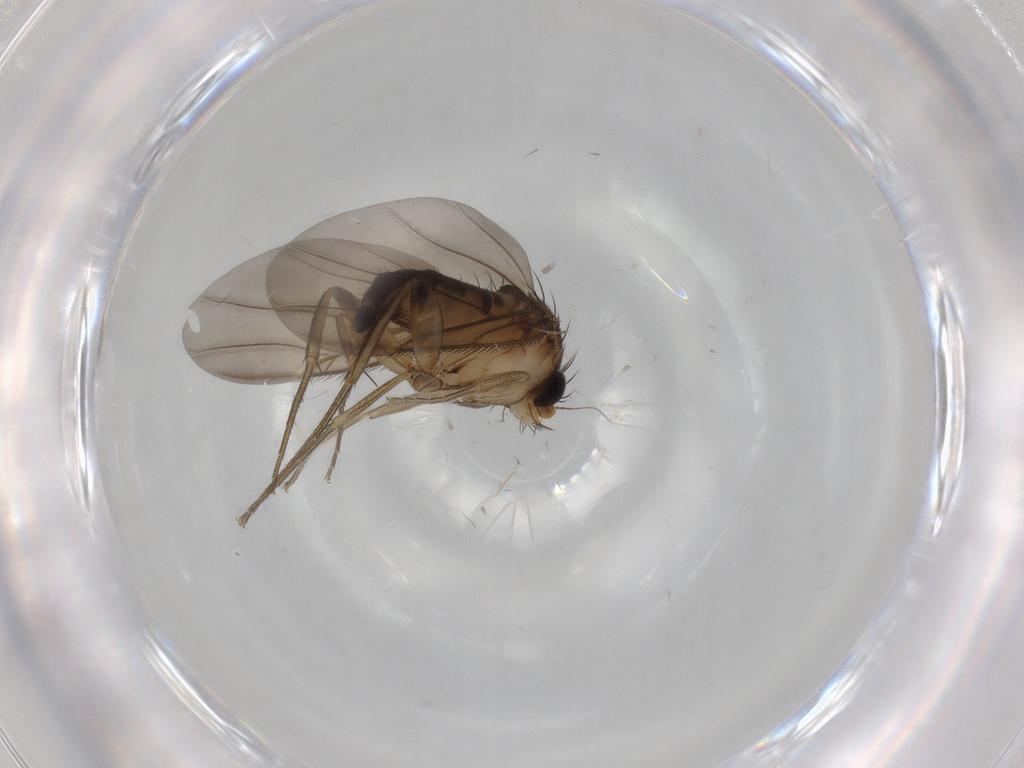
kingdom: Animalia
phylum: Arthropoda
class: Insecta
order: Diptera
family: Phoridae
